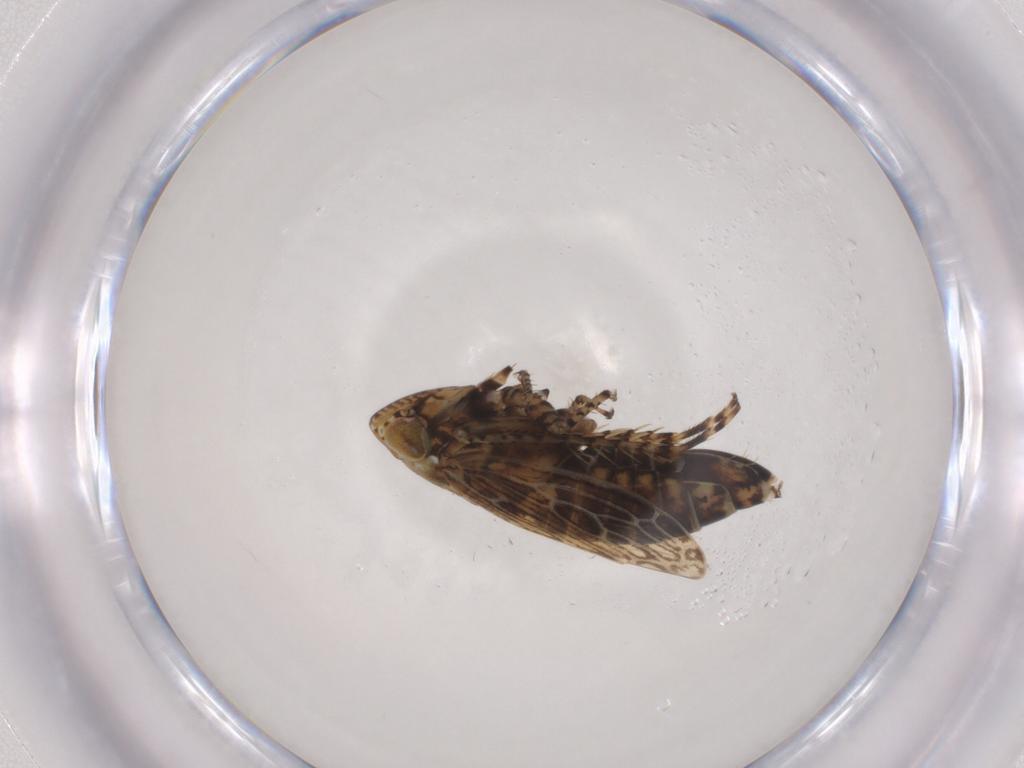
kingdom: Animalia
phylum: Arthropoda
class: Insecta
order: Hemiptera
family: Cicadellidae
